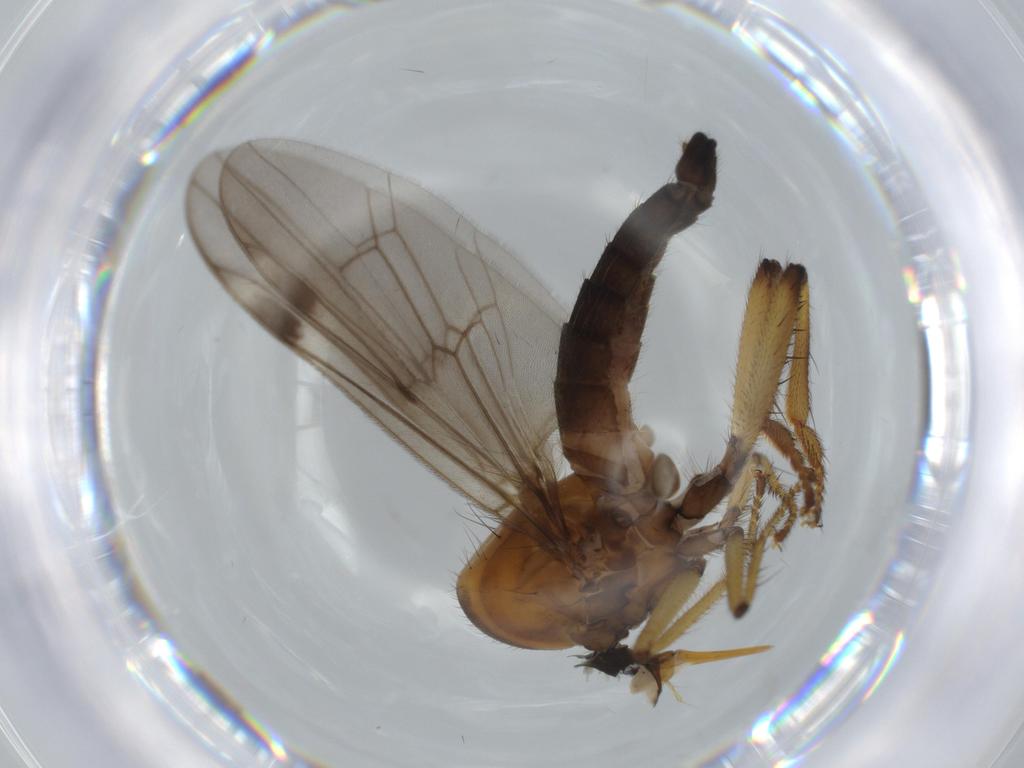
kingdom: Animalia
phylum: Arthropoda
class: Insecta
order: Diptera
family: Hybotidae
